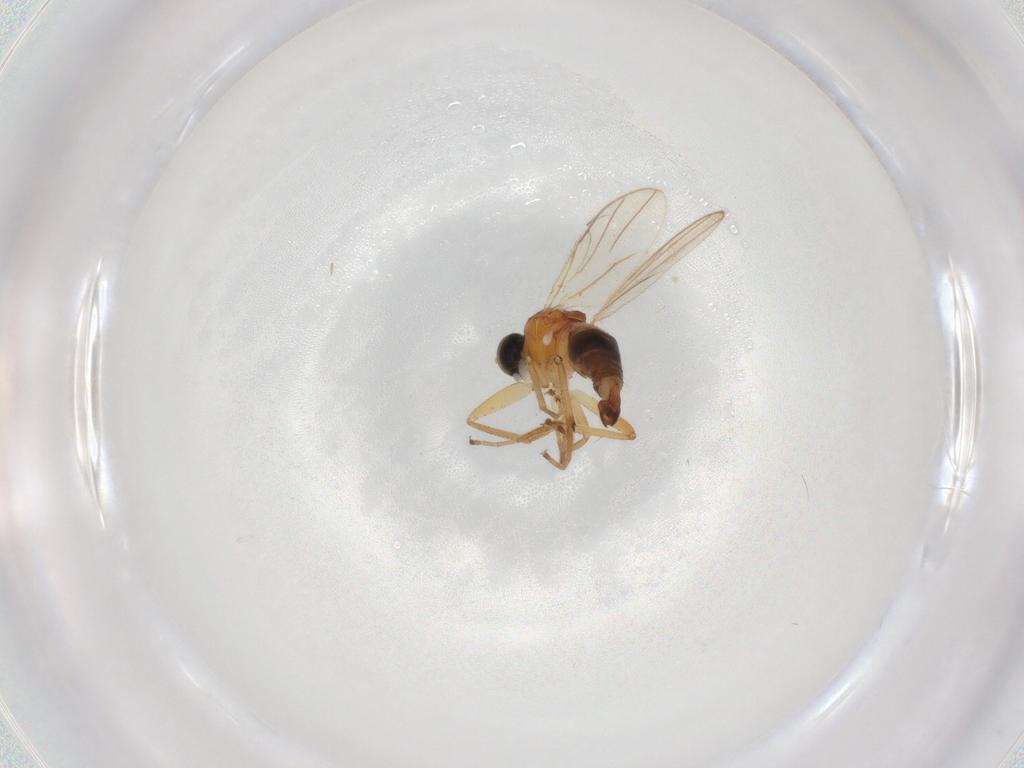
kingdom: Animalia
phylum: Arthropoda
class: Insecta
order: Diptera
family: Hybotidae
